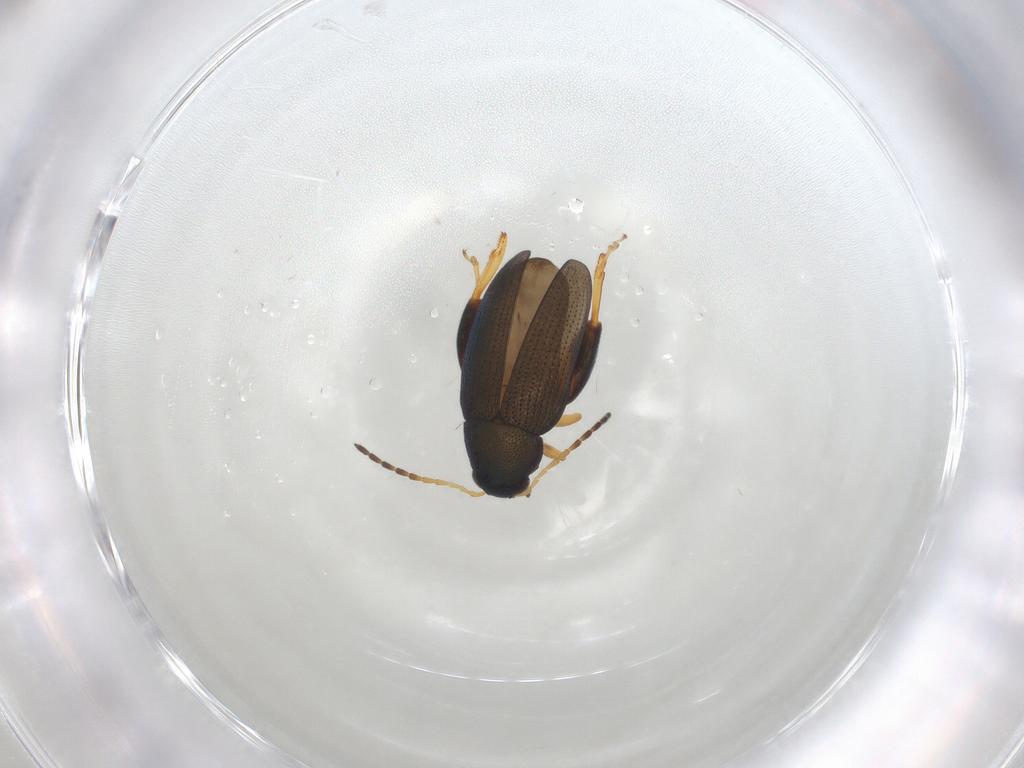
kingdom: Animalia
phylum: Arthropoda
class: Insecta
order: Coleoptera
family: Chrysomelidae
